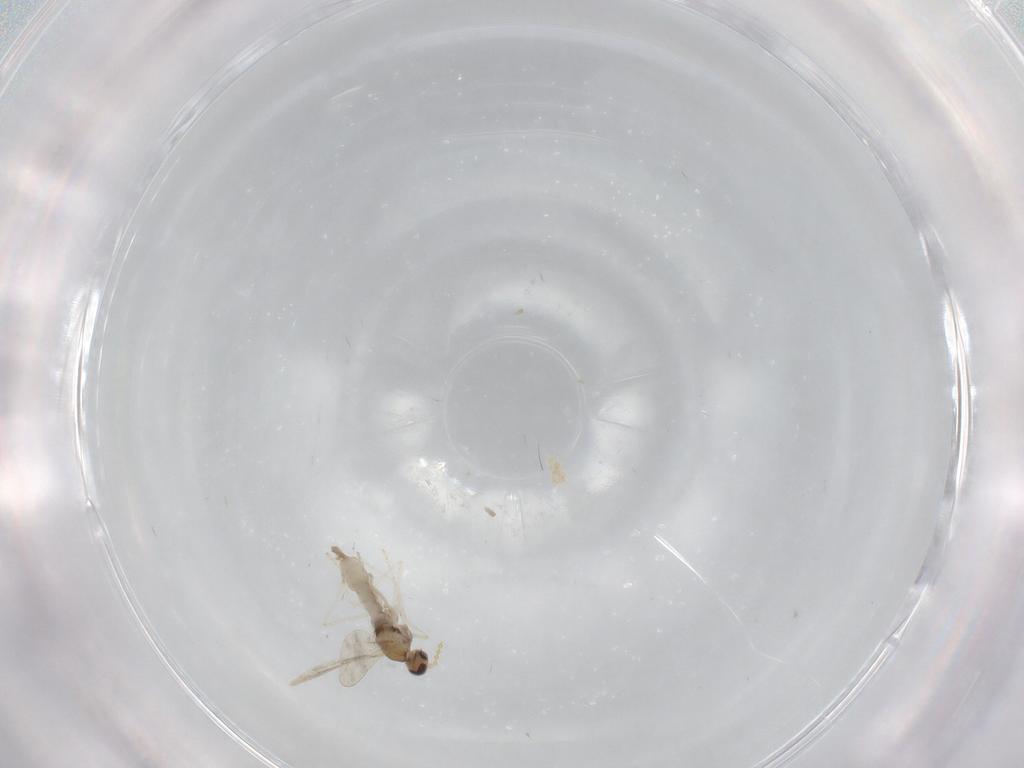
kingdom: Animalia
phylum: Arthropoda
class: Insecta
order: Diptera
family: Cecidomyiidae
